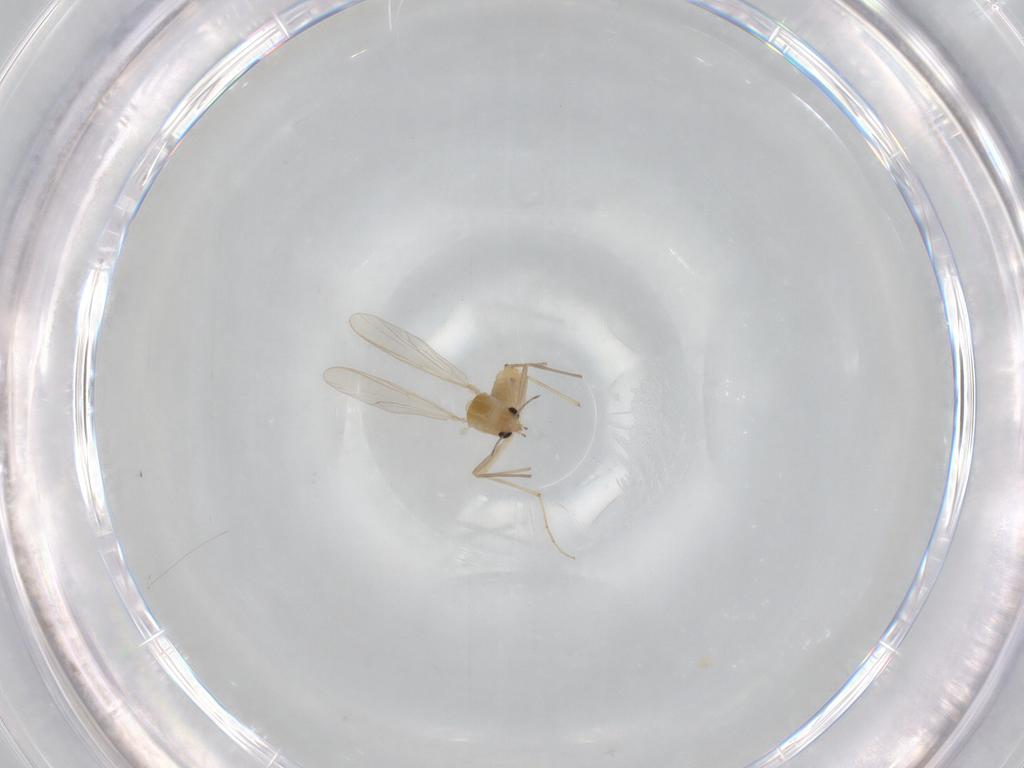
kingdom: Animalia
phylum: Arthropoda
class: Insecta
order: Diptera
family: Chironomidae
